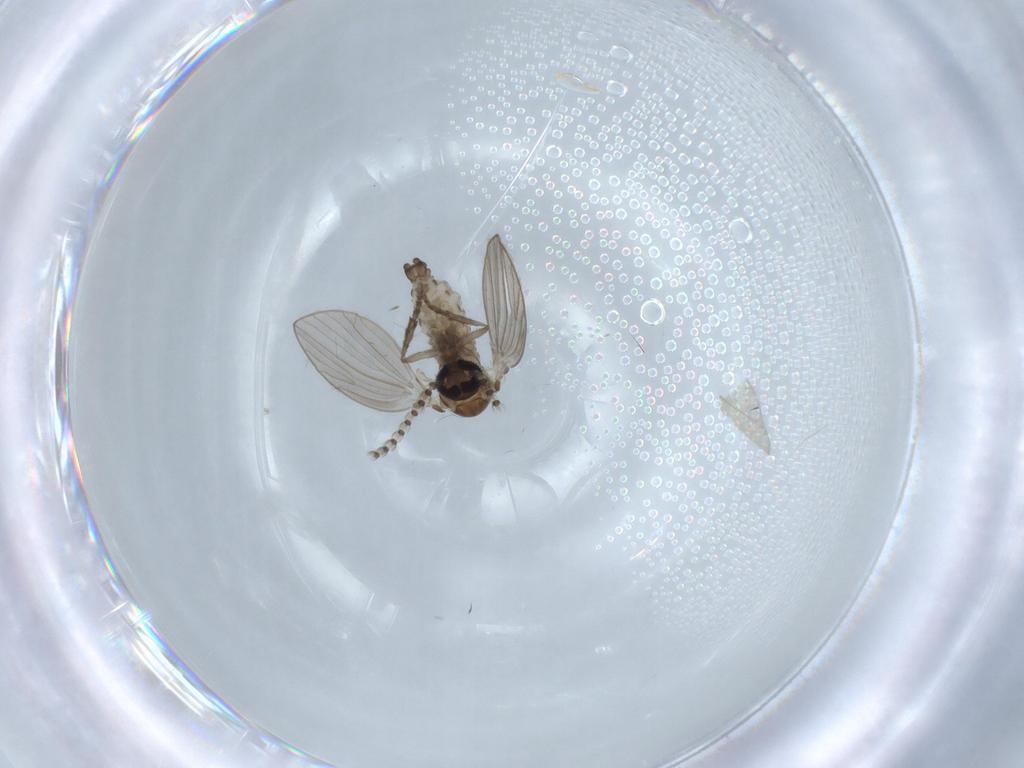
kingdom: Animalia
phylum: Arthropoda
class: Insecta
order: Diptera
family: Psychodidae
